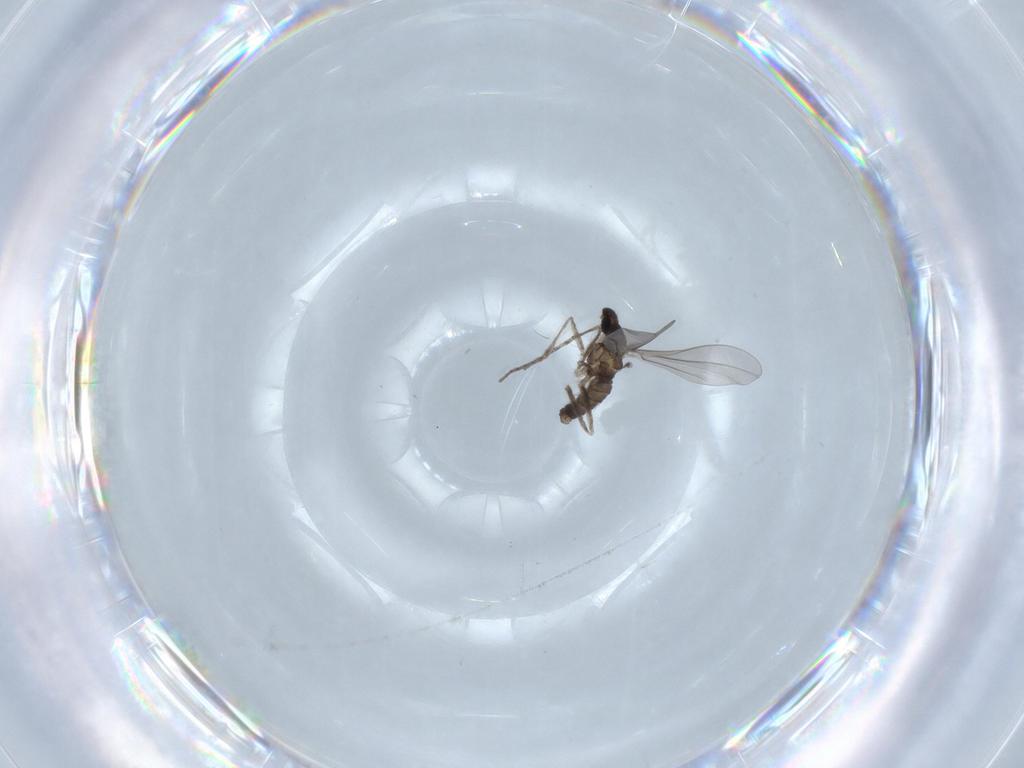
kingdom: Animalia
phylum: Arthropoda
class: Insecta
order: Diptera
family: Cecidomyiidae
